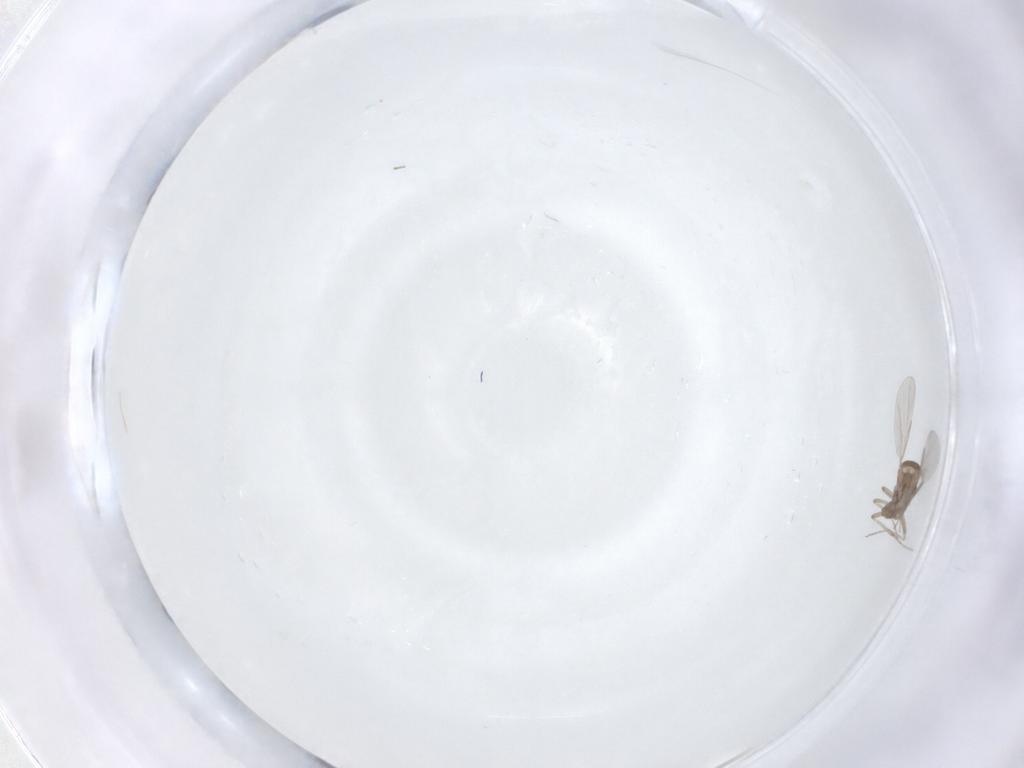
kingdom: Animalia
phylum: Arthropoda
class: Insecta
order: Diptera
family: Ceratopogonidae
